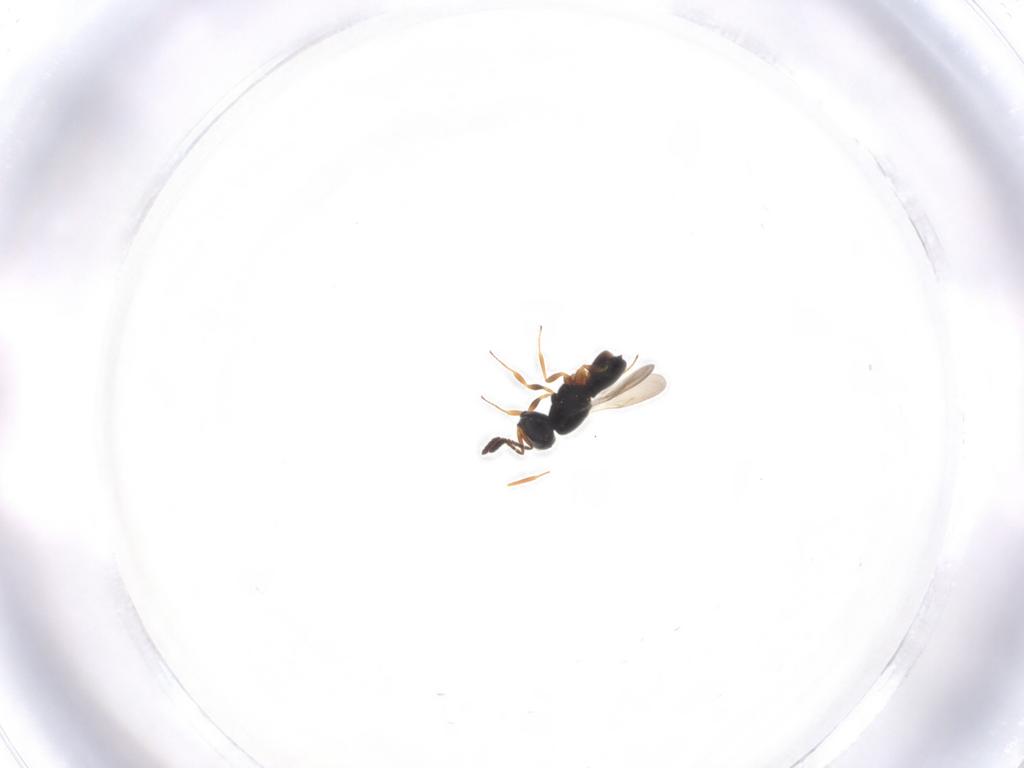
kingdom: Animalia
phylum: Arthropoda
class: Insecta
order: Hymenoptera
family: Scelionidae
